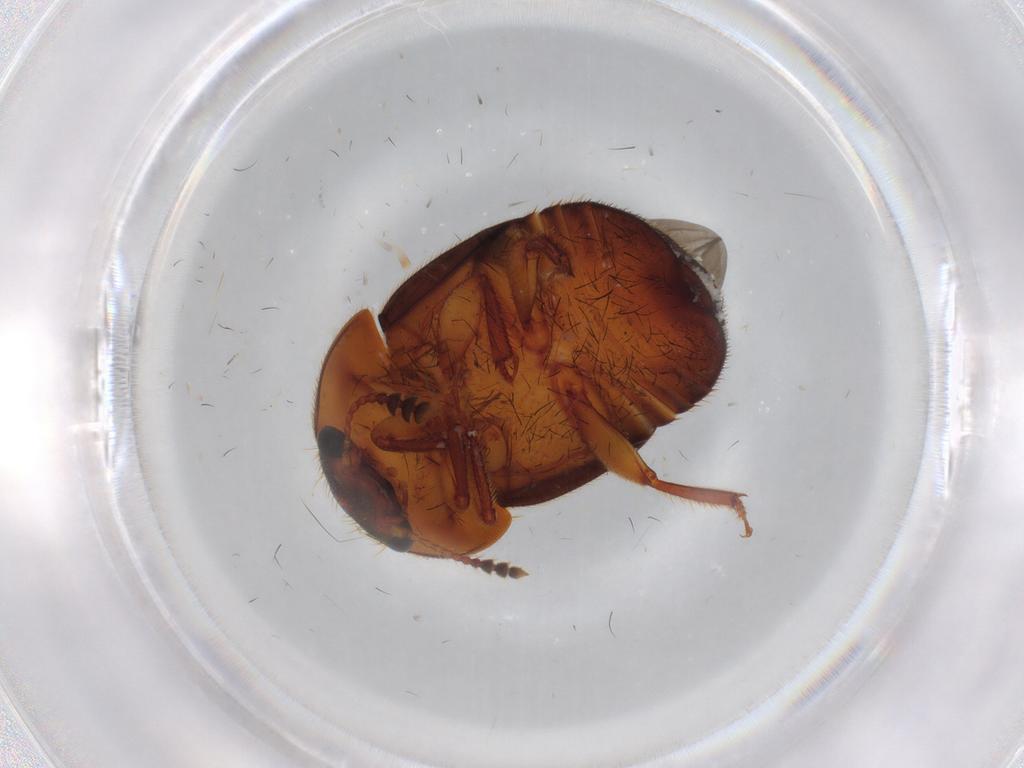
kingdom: Animalia
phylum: Arthropoda
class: Insecta
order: Coleoptera
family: Nitidulidae
